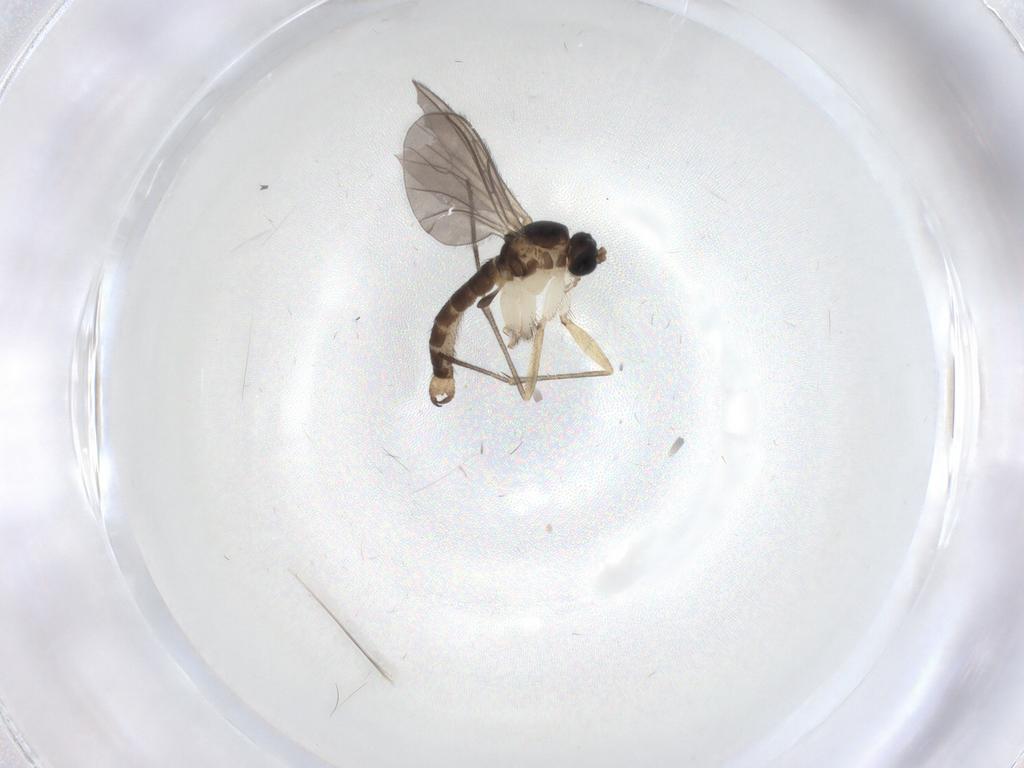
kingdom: Animalia
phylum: Arthropoda
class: Insecta
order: Diptera
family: Sciaridae
